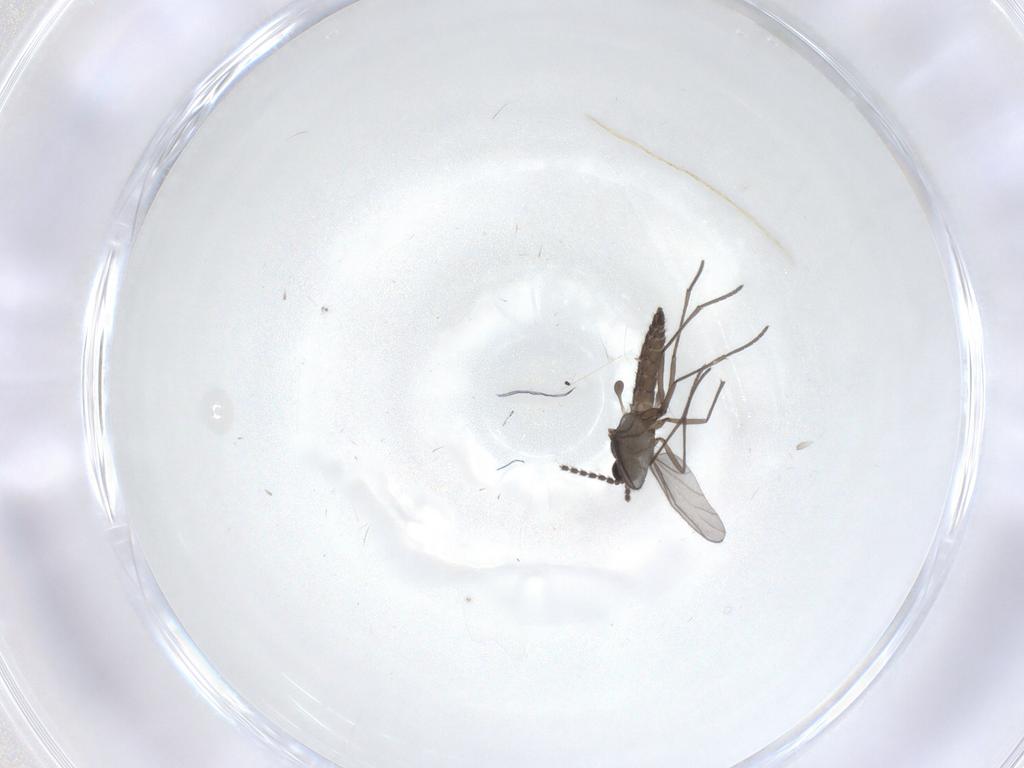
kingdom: Animalia
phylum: Arthropoda
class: Insecta
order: Diptera
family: Sciaridae
